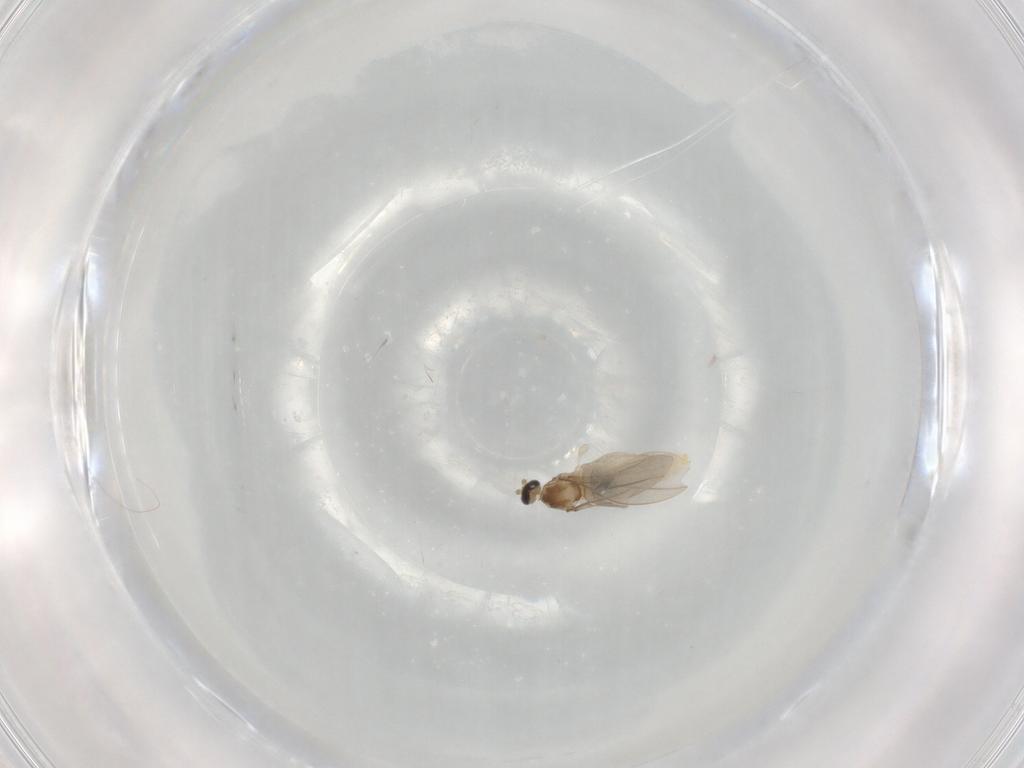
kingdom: Animalia
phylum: Arthropoda
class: Insecta
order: Diptera
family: Cecidomyiidae
